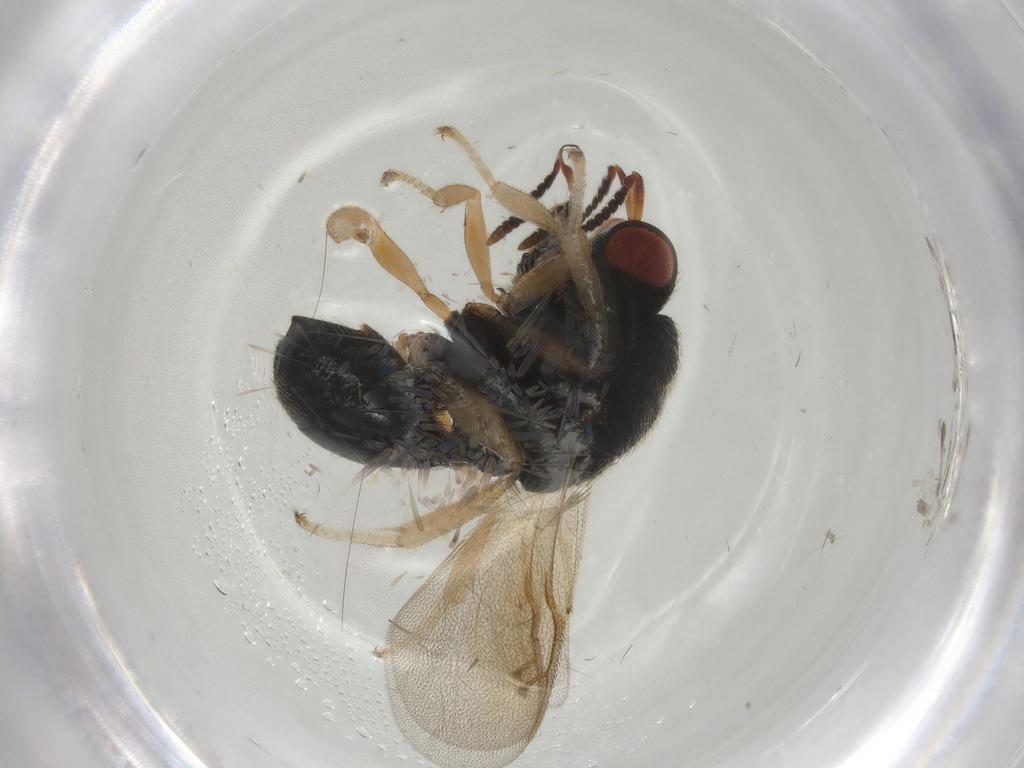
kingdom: Animalia
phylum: Arthropoda
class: Insecta
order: Hymenoptera
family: Eurytomidae
